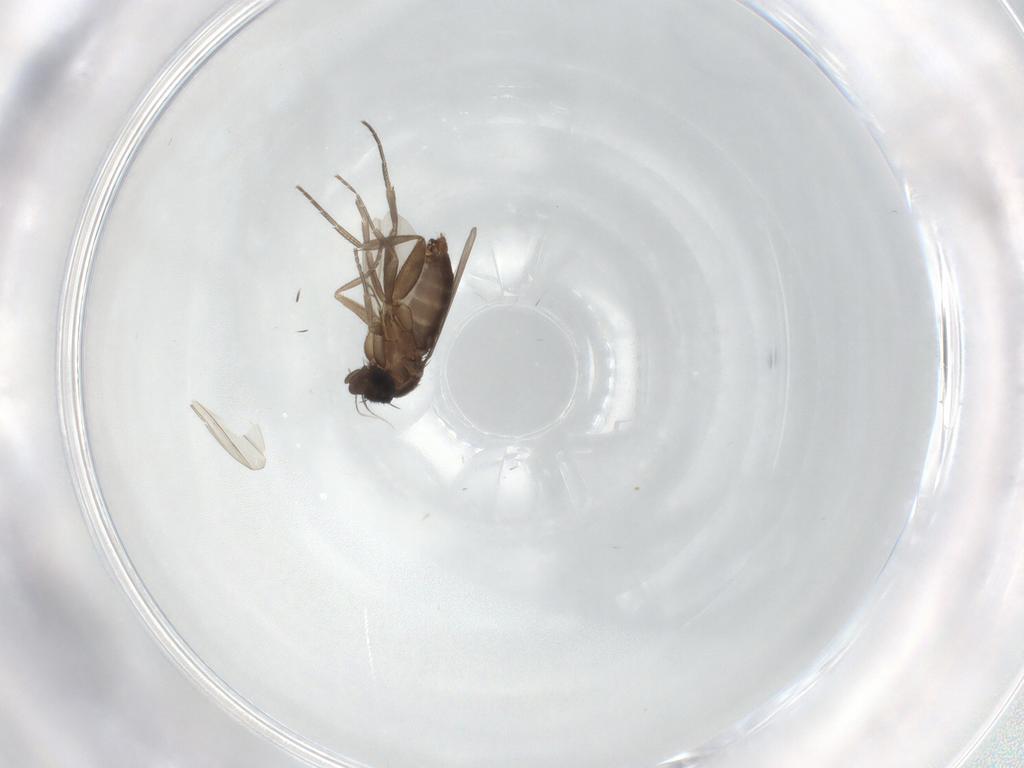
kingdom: Animalia
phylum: Arthropoda
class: Insecta
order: Diptera
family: Phoridae
